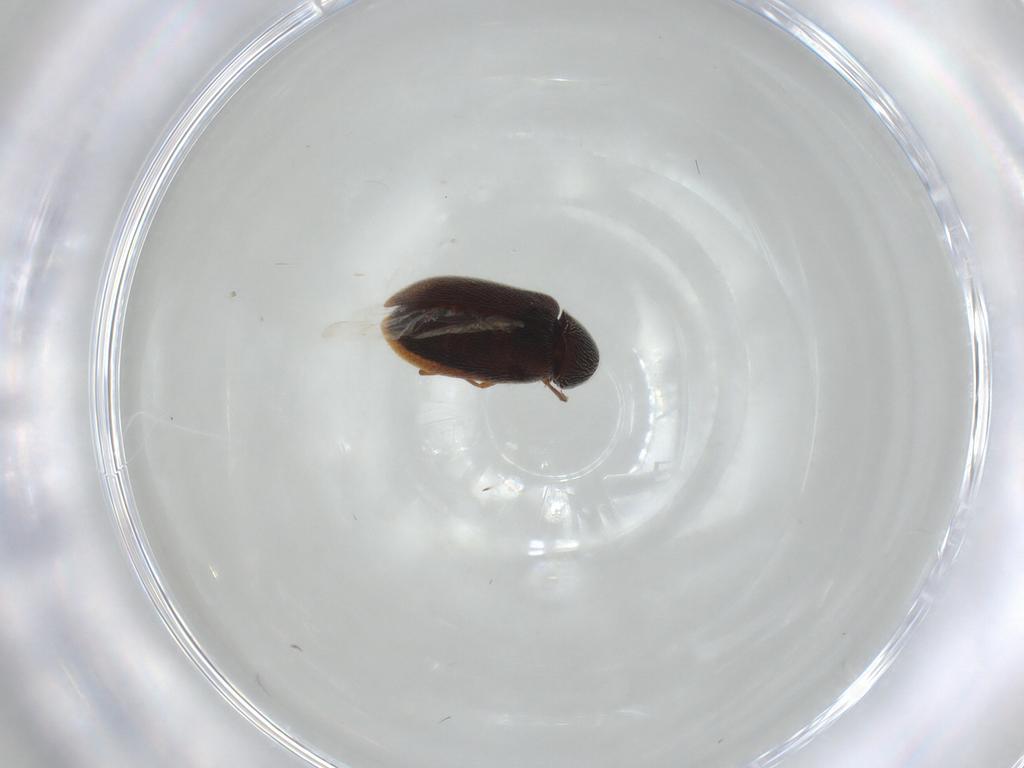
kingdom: Animalia
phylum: Arthropoda
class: Insecta
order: Coleoptera
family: Rhadalidae
